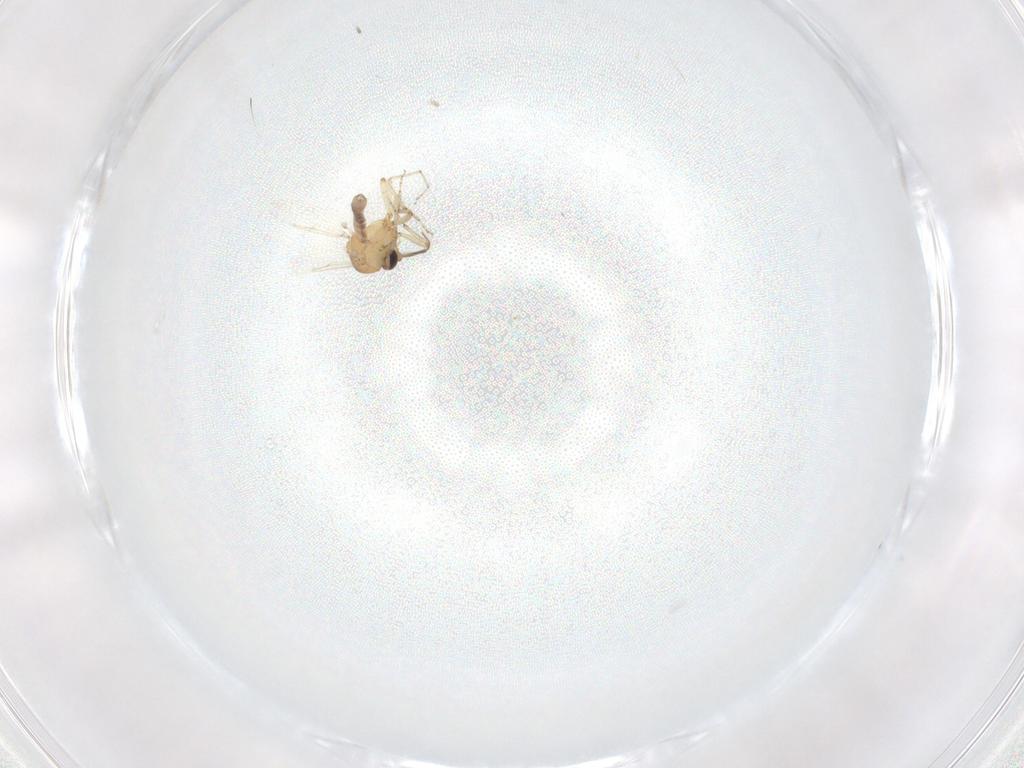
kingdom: Animalia
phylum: Arthropoda
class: Insecta
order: Diptera
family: Ceratopogonidae
